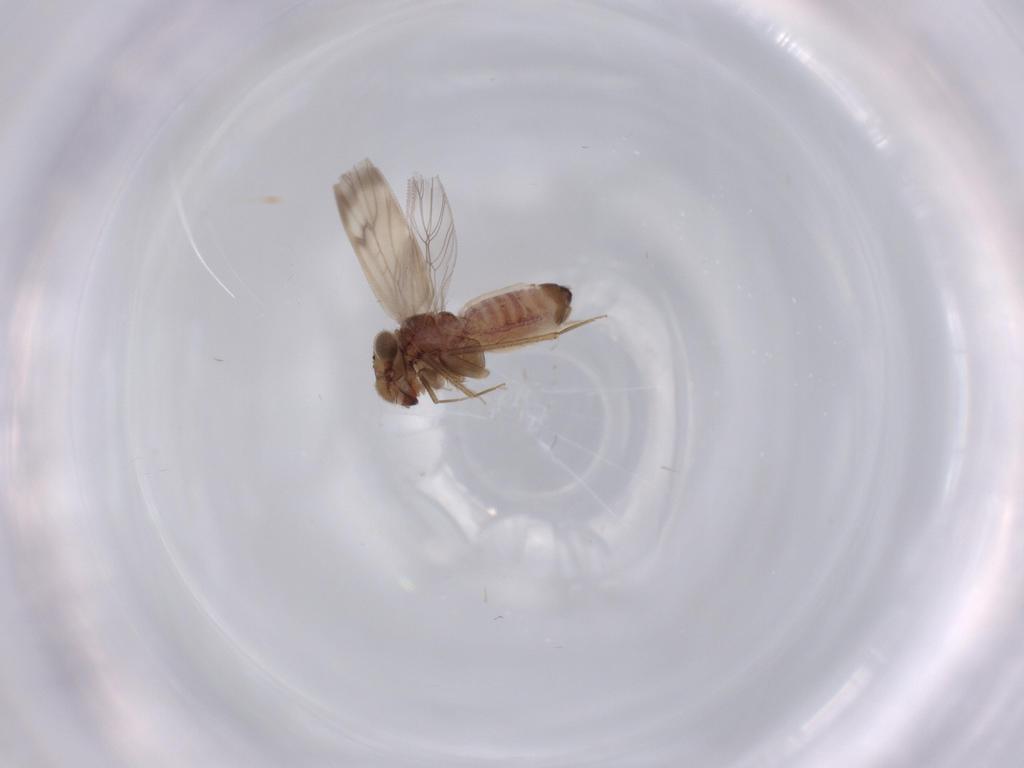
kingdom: Animalia
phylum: Arthropoda
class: Insecta
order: Psocodea
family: Lepidopsocidae
